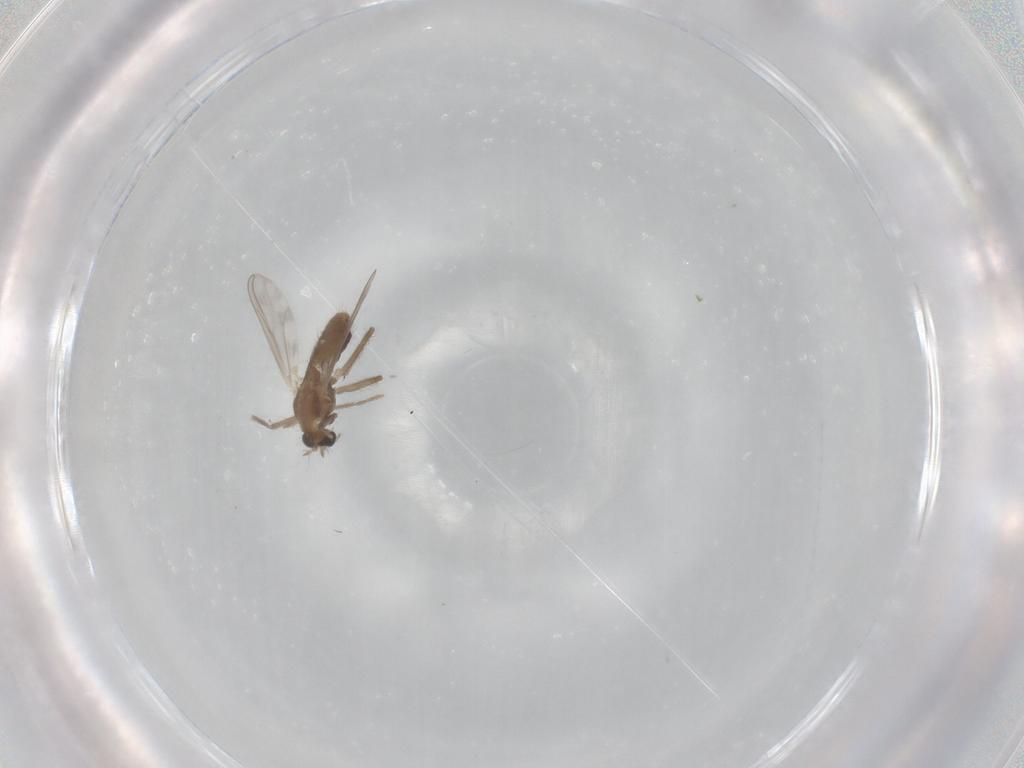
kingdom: Animalia
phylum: Arthropoda
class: Insecta
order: Diptera
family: Chironomidae
